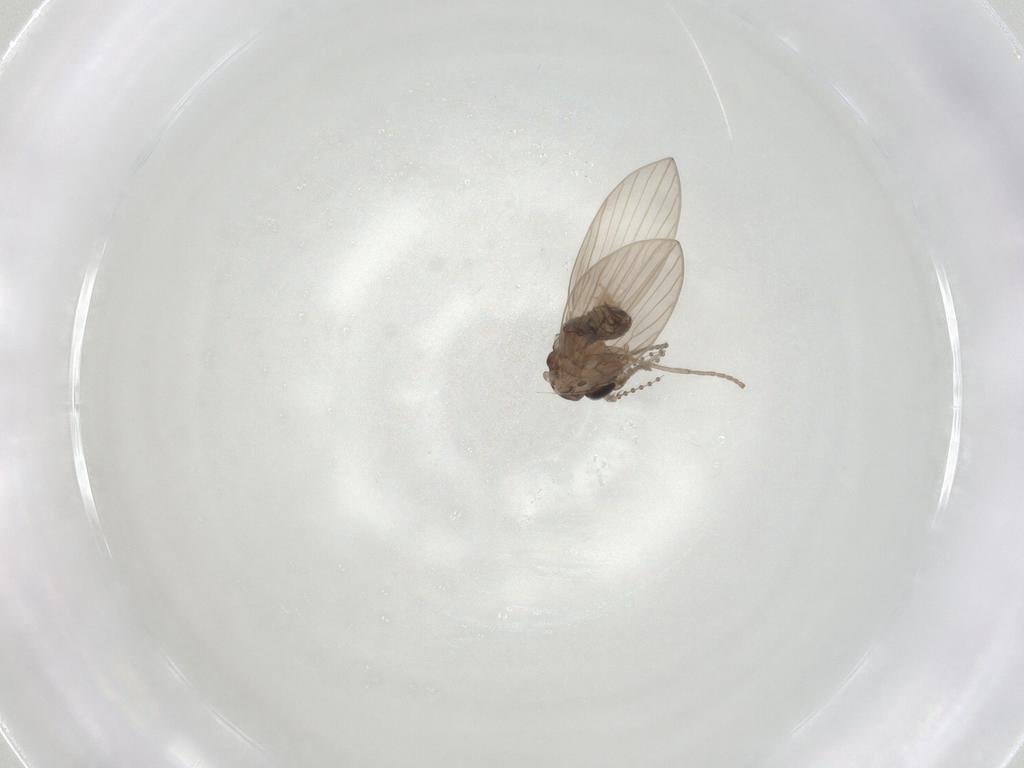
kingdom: Animalia
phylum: Arthropoda
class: Insecta
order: Diptera
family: Psychodidae
